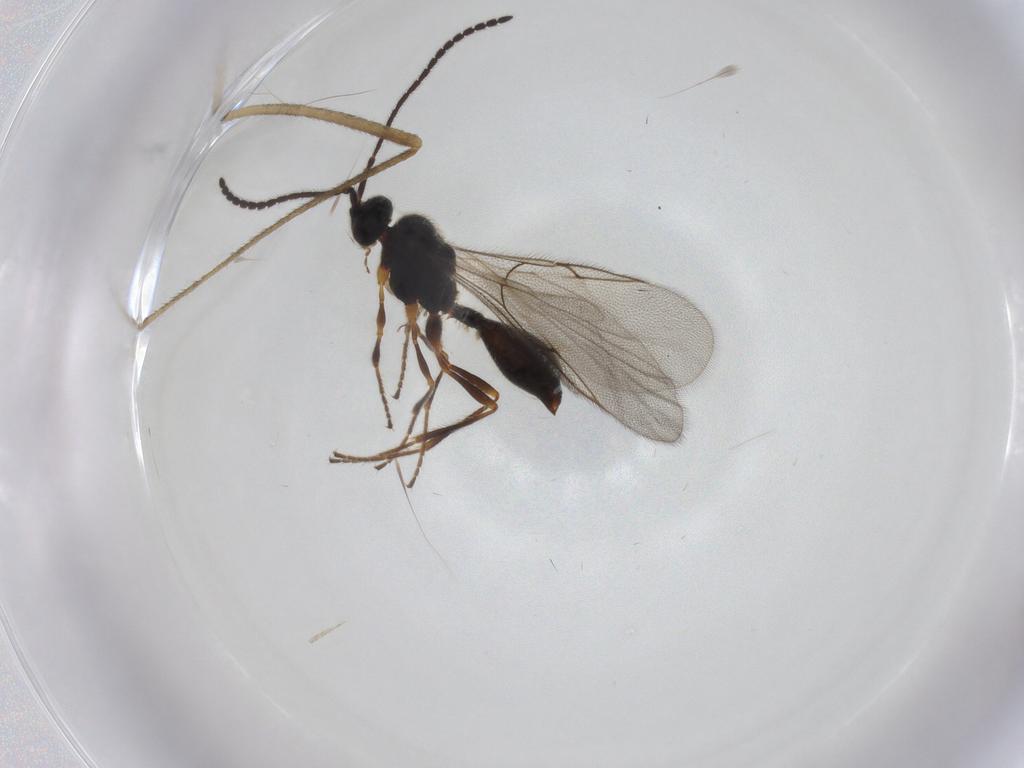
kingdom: Animalia
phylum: Arthropoda
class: Insecta
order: Hymenoptera
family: Diapriidae
